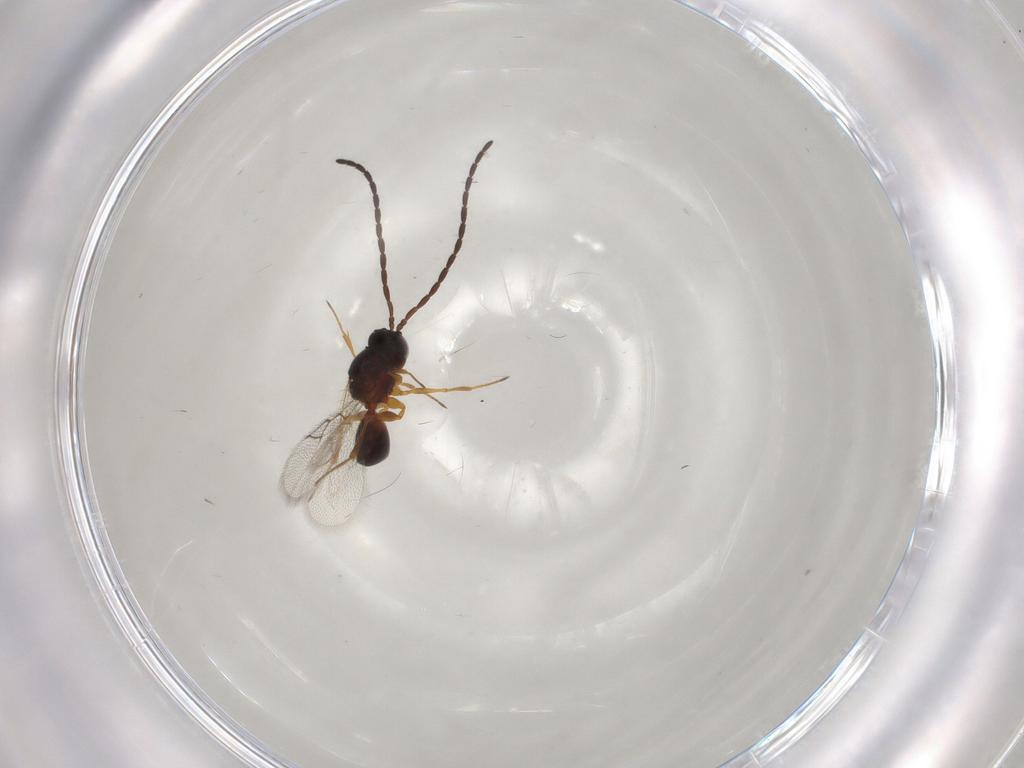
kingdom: Animalia
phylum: Arthropoda
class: Insecta
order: Hymenoptera
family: Figitidae
